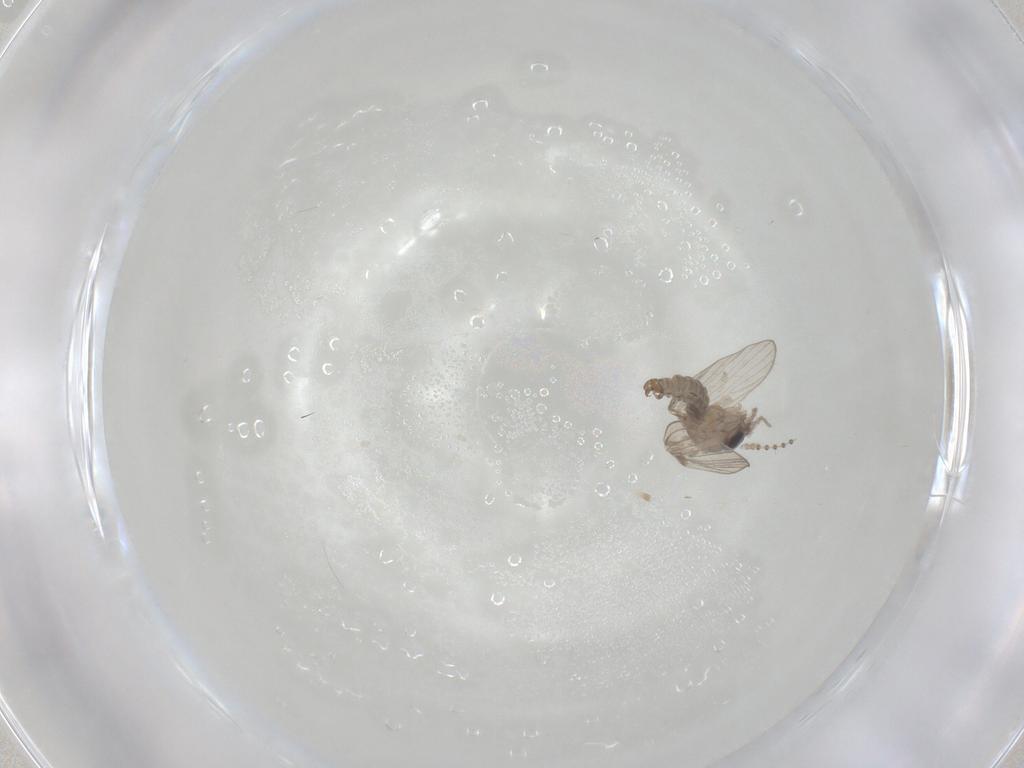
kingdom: Animalia
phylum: Arthropoda
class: Insecta
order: Diptera
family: Psychodidae
